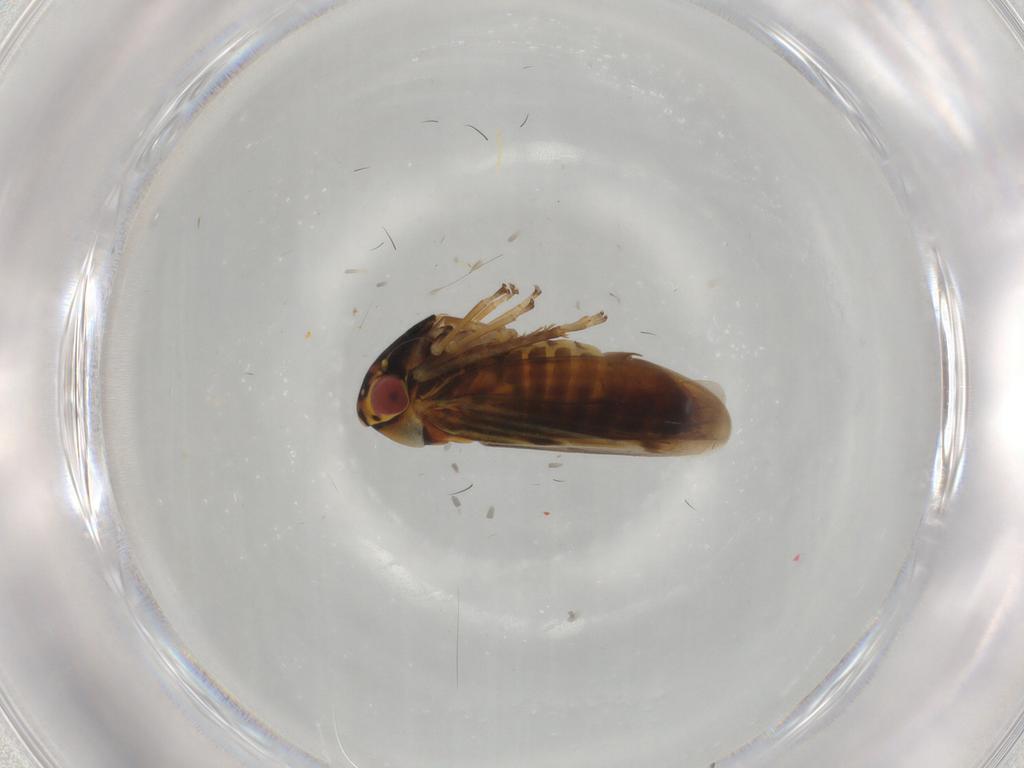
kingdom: Animalia
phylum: Arthropoda
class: Insecta
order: Hemiptera
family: Cicadellidae
